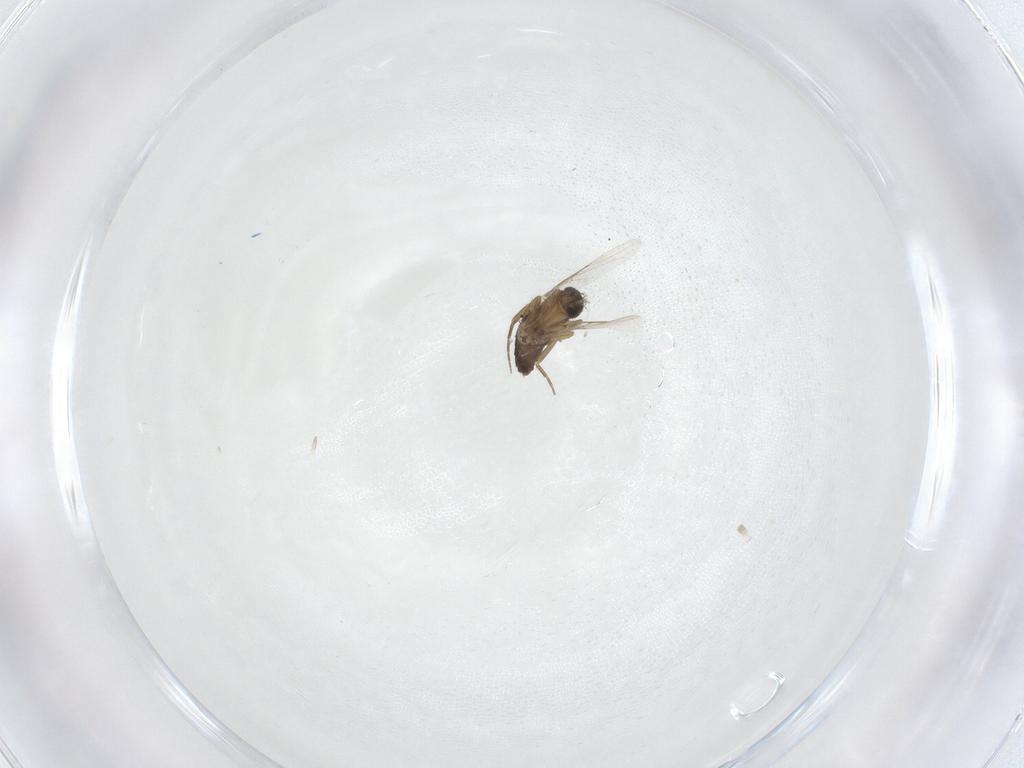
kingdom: Animalia
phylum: Arthropoda
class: Insecta
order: Diptera
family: Phoridae
